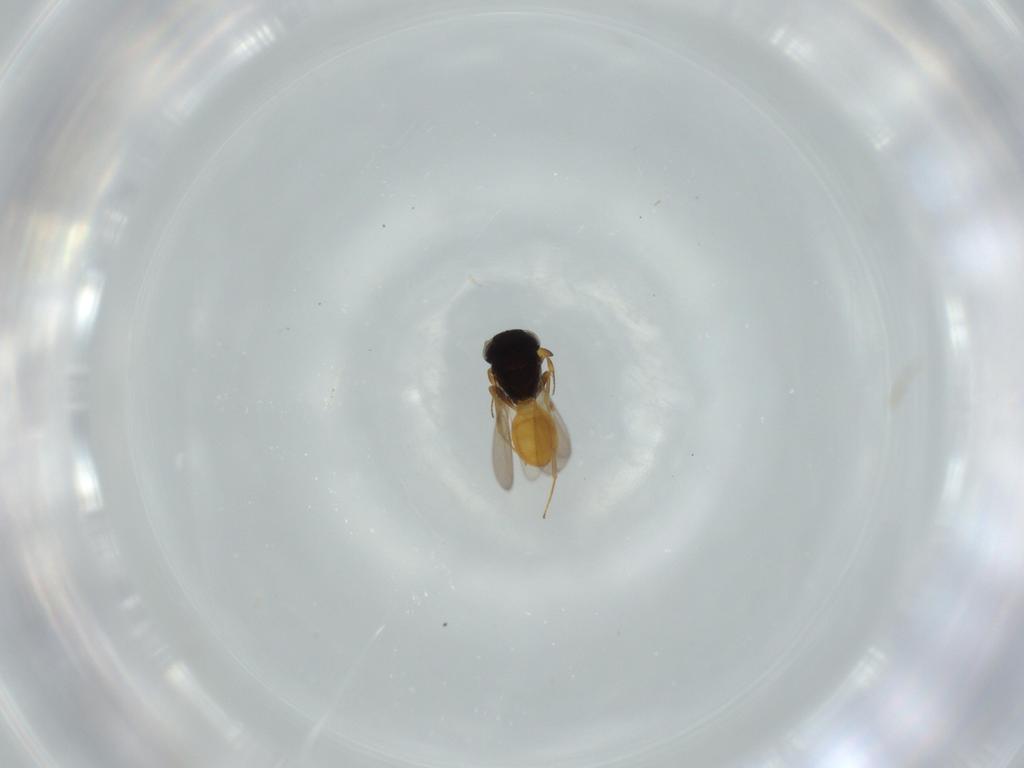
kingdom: Animalia
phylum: Arthropoda
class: Insecta
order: Hymenoptera
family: Scelionidae
